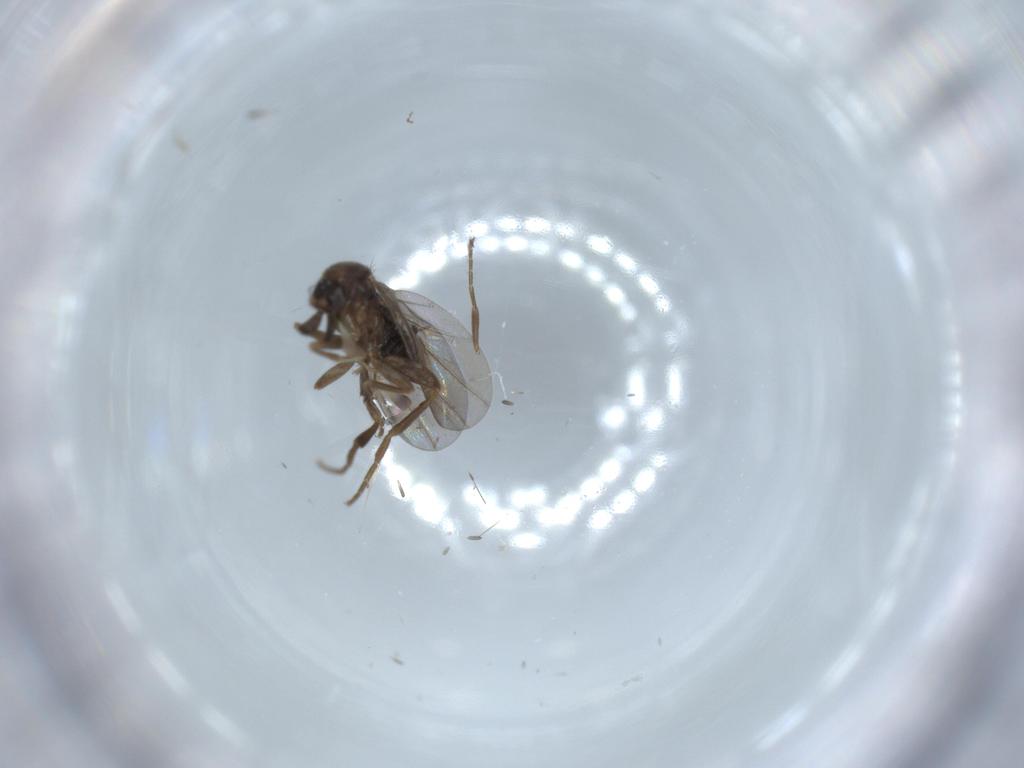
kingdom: Animalia
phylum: Arthropoda
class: Insecta
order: Diptera
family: Phoridae
